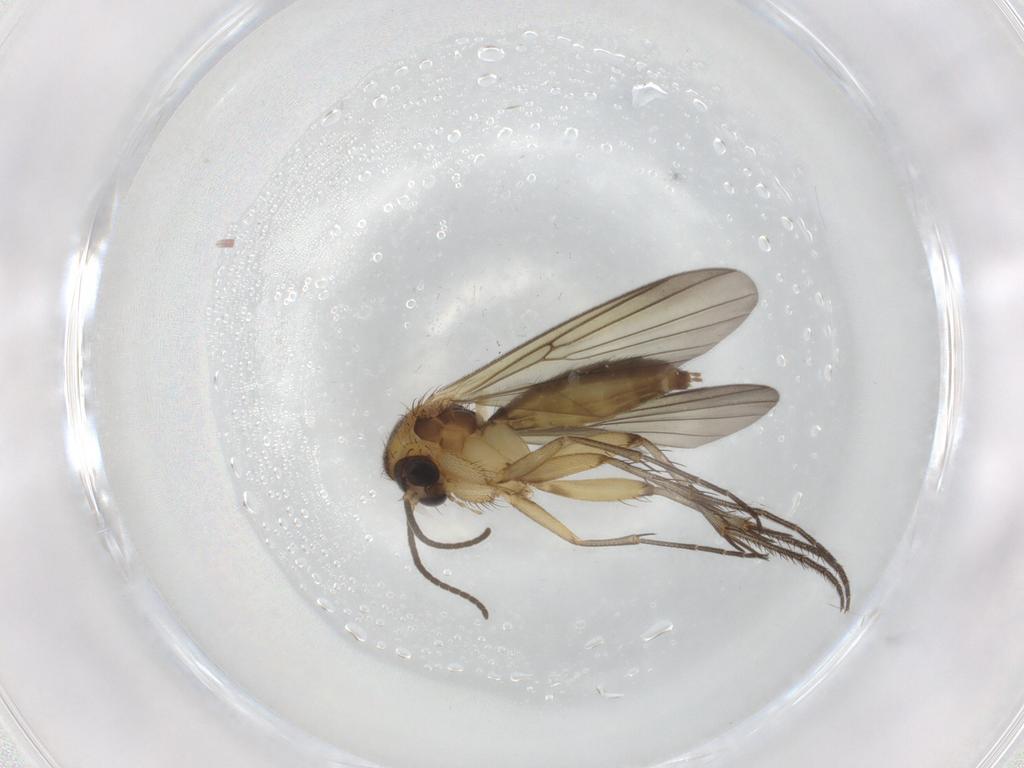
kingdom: Animalia
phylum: Arthropoda
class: Insecta
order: Diptera
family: Sciaridae
